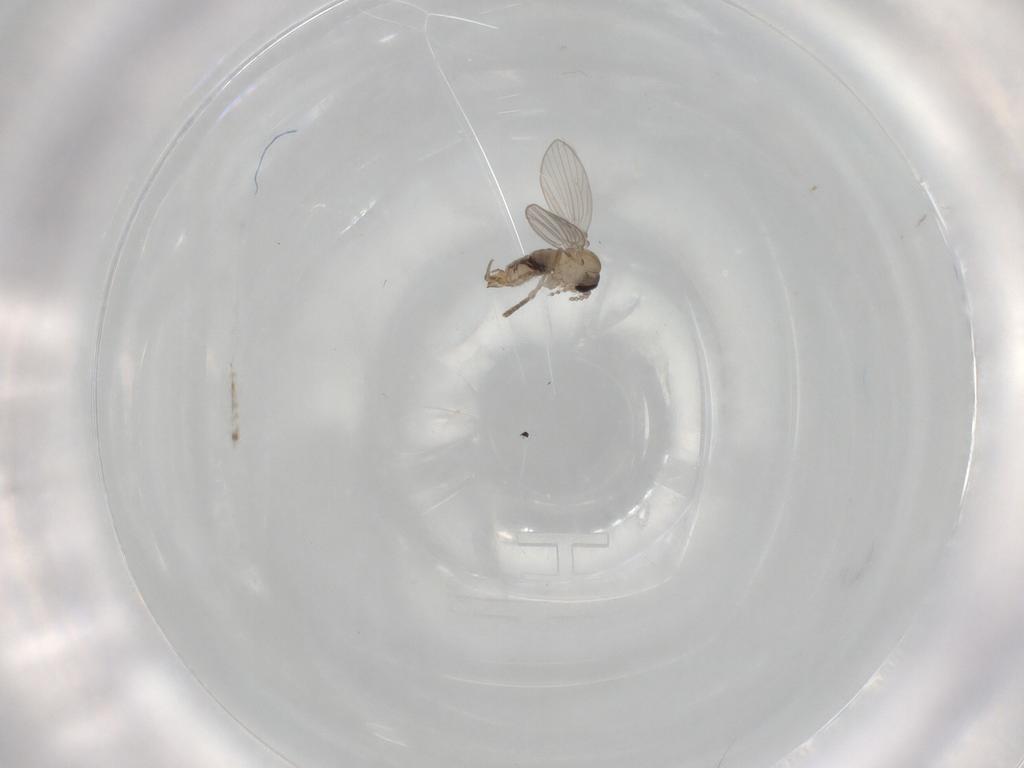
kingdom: Animalia
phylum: Arthropoda
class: Insecta
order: Diptera
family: Sciaridae
